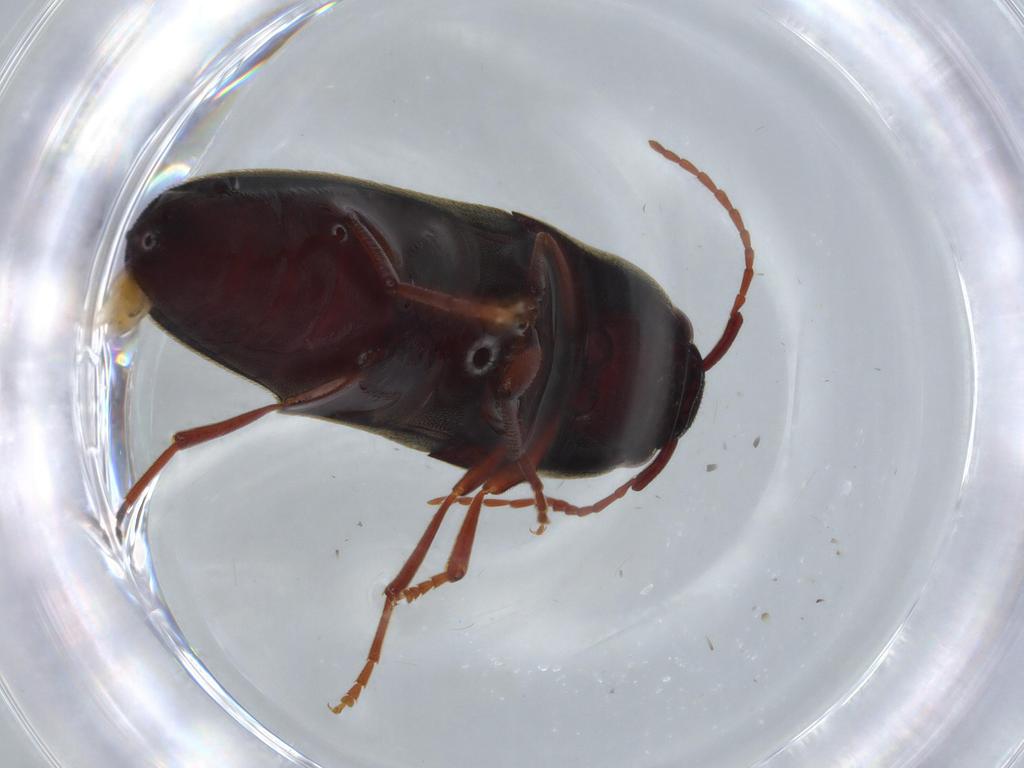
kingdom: Animalia
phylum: Arthropoda
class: Insecta
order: Coleoptera
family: Eucnemidae
